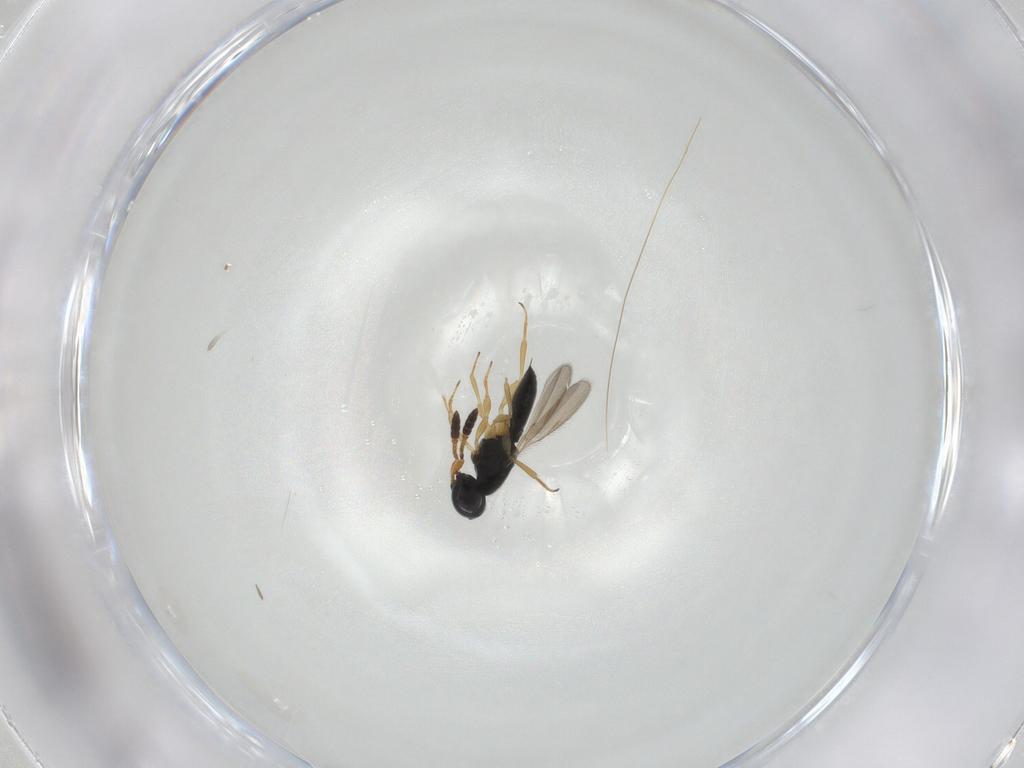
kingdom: Animalia
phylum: Arthropoda
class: Insecta
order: Hymenoptera
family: Scelionidae
